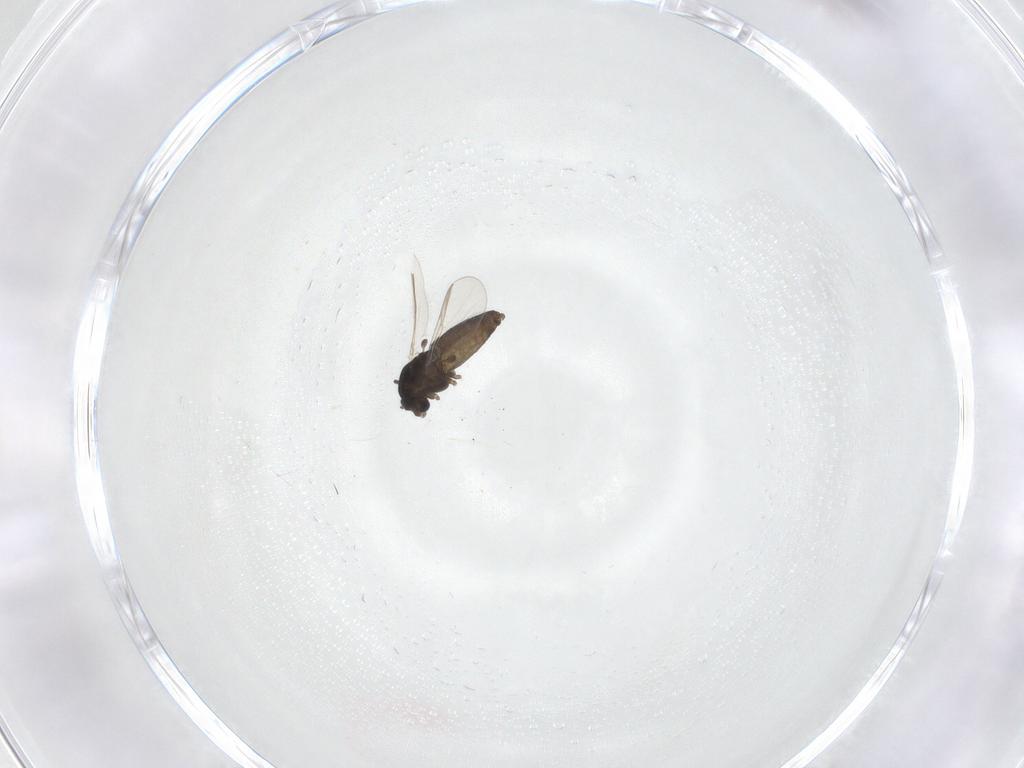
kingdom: Animalia
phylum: Arthropoda
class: Insecta
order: Diptera
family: Chironomidae
